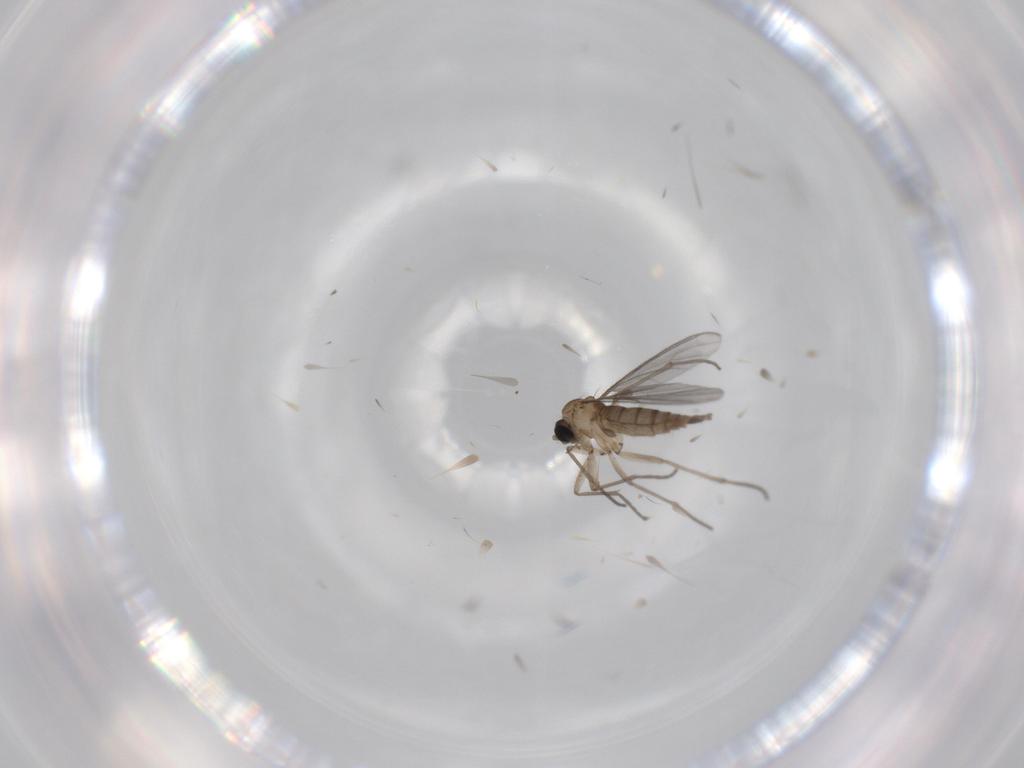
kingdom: Animalia
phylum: Arthropoda
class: Insecta
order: Diptera
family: Sciaridae
